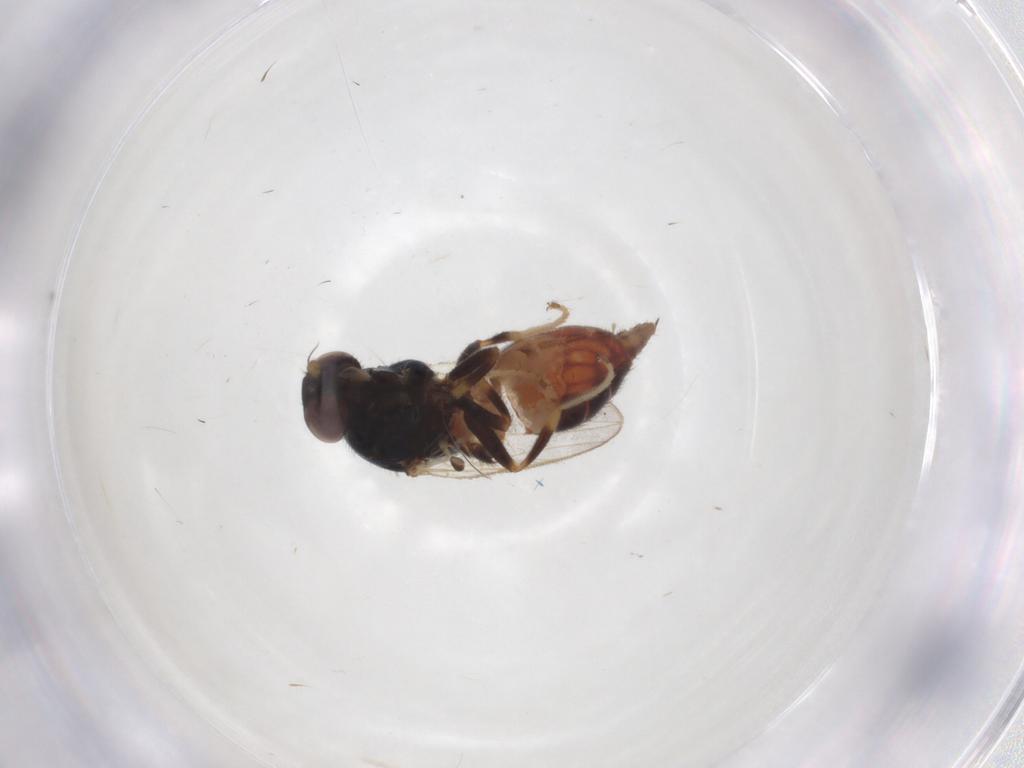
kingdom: Animalia
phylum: Arthropoda
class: Insecta
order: Diptera
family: Chloropidae
